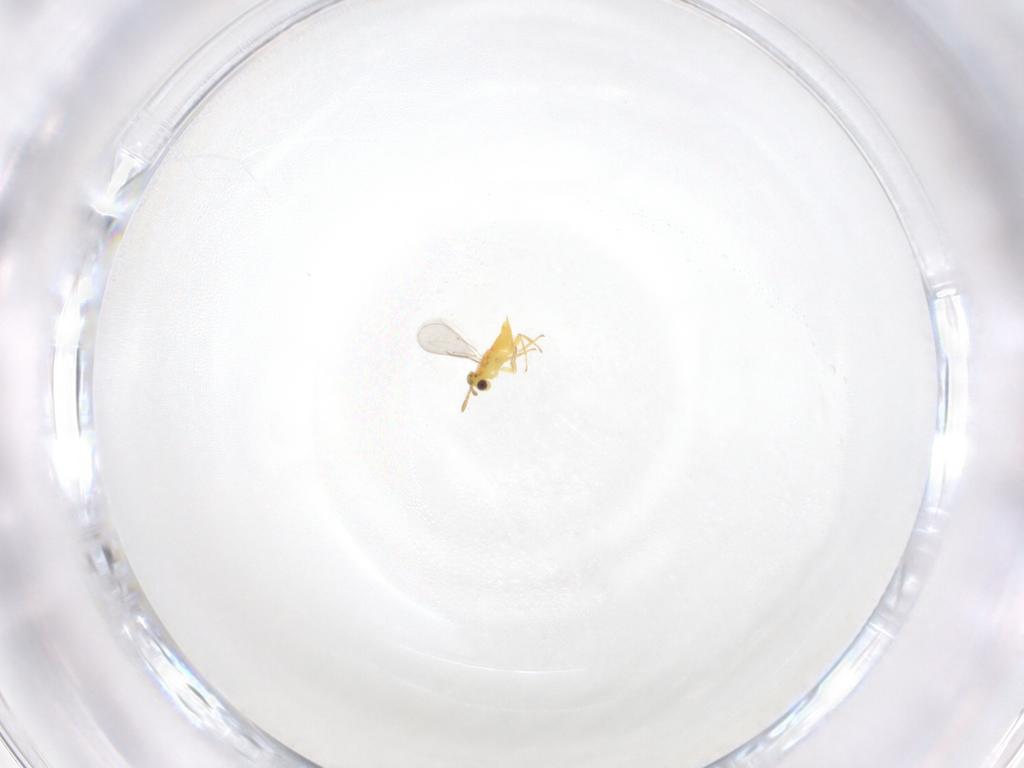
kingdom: Animalia
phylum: Arthropoda
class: Insecta
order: Hymenoptera
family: Aphelinidae
